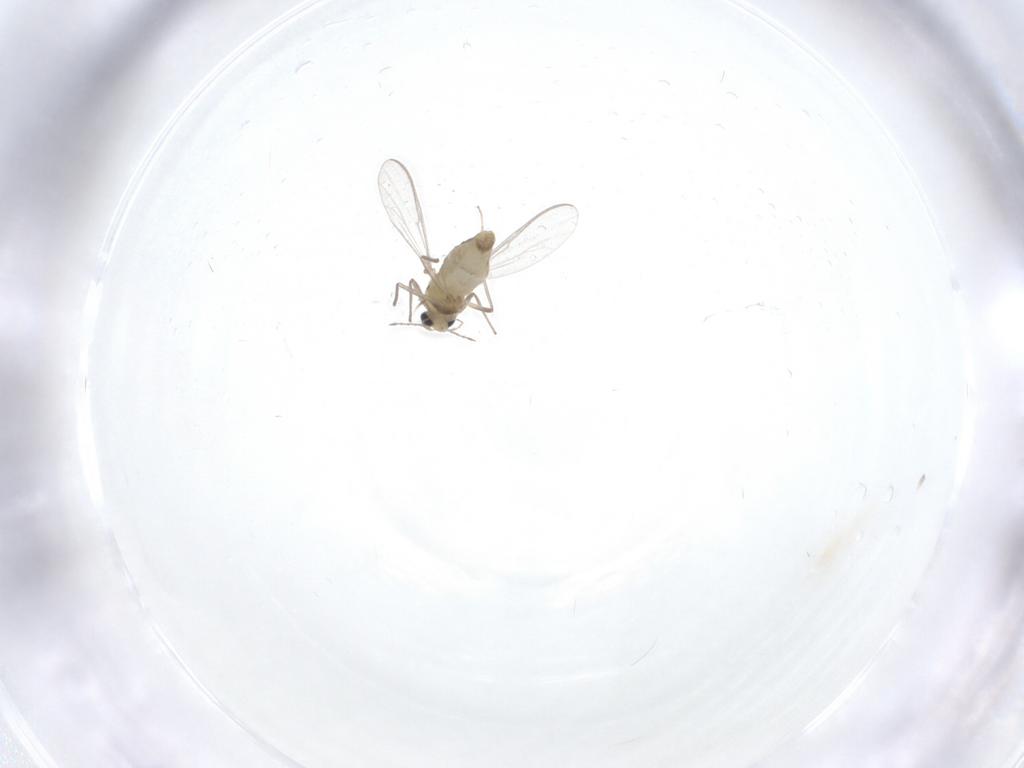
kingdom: Animalia
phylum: Arthropoda
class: Insecta
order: Diptera
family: Chironomidae
